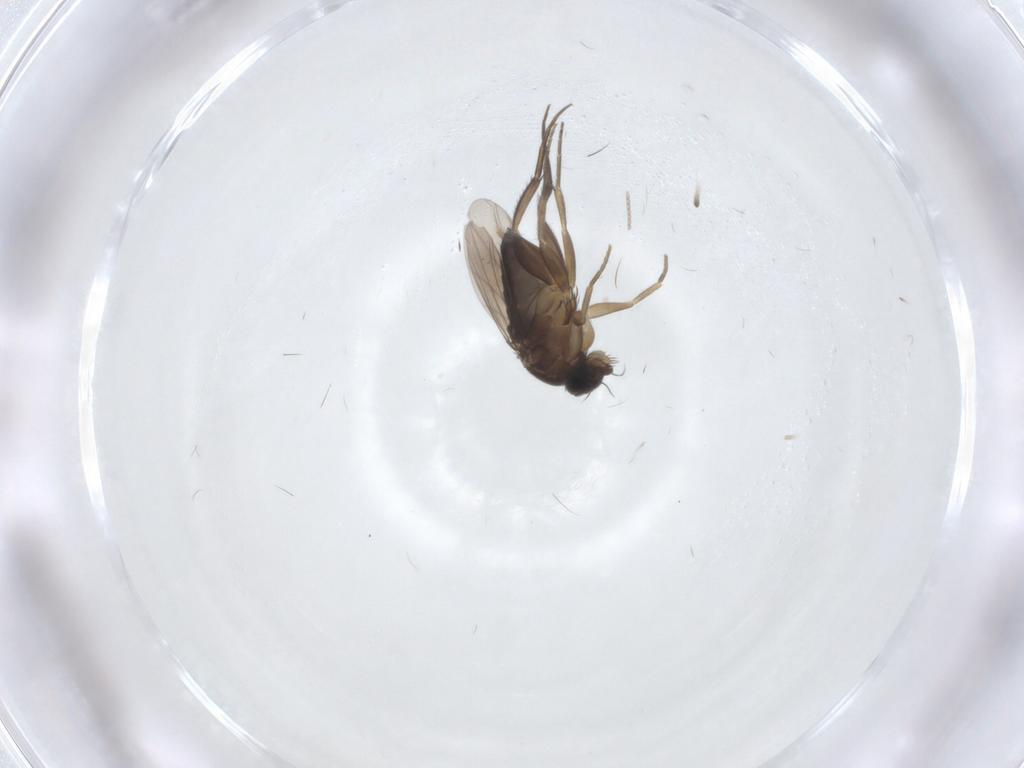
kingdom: Animalia
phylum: Arthropoda
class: Insecta
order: Diptera
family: Phoridae
